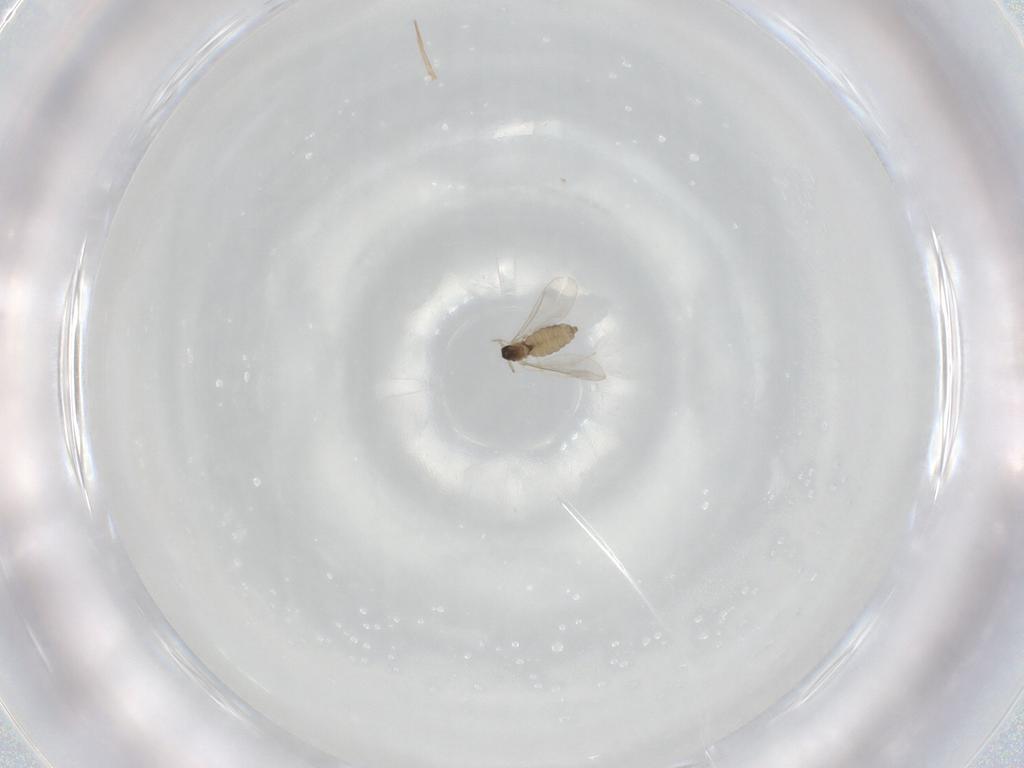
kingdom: Animalia
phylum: Arthropoda
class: Insecta
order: Diptera
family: Cecidomyiidae
